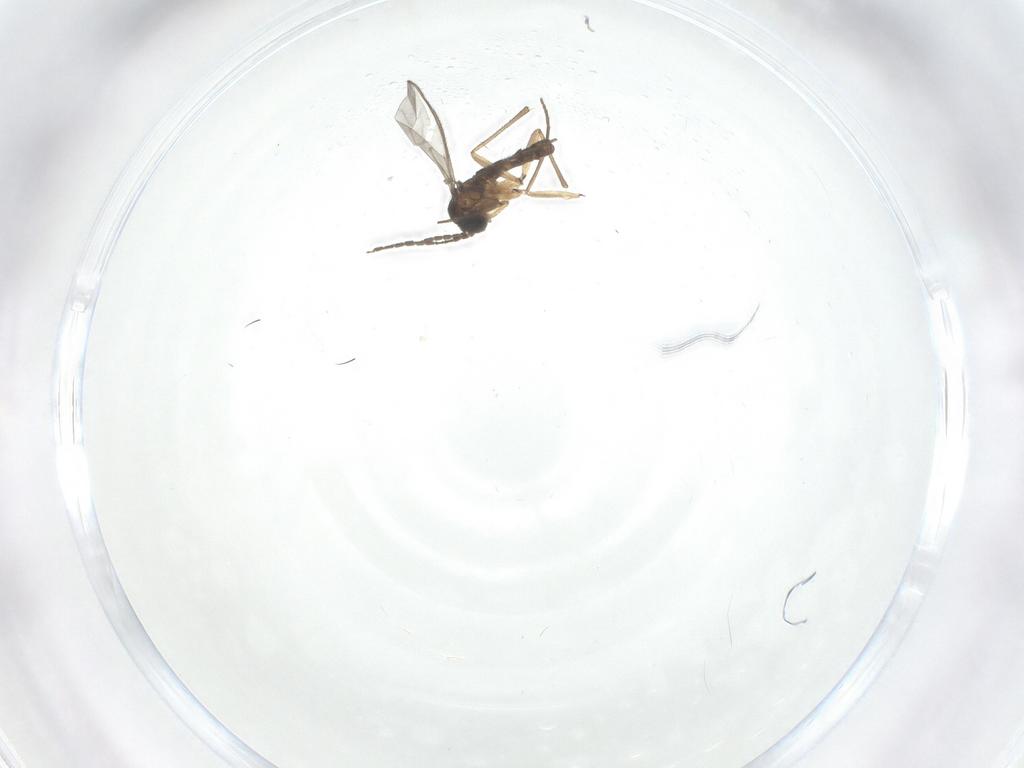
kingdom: Animalia
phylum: Arthropoda
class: Insecta
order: Diptera
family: Sciaridae
